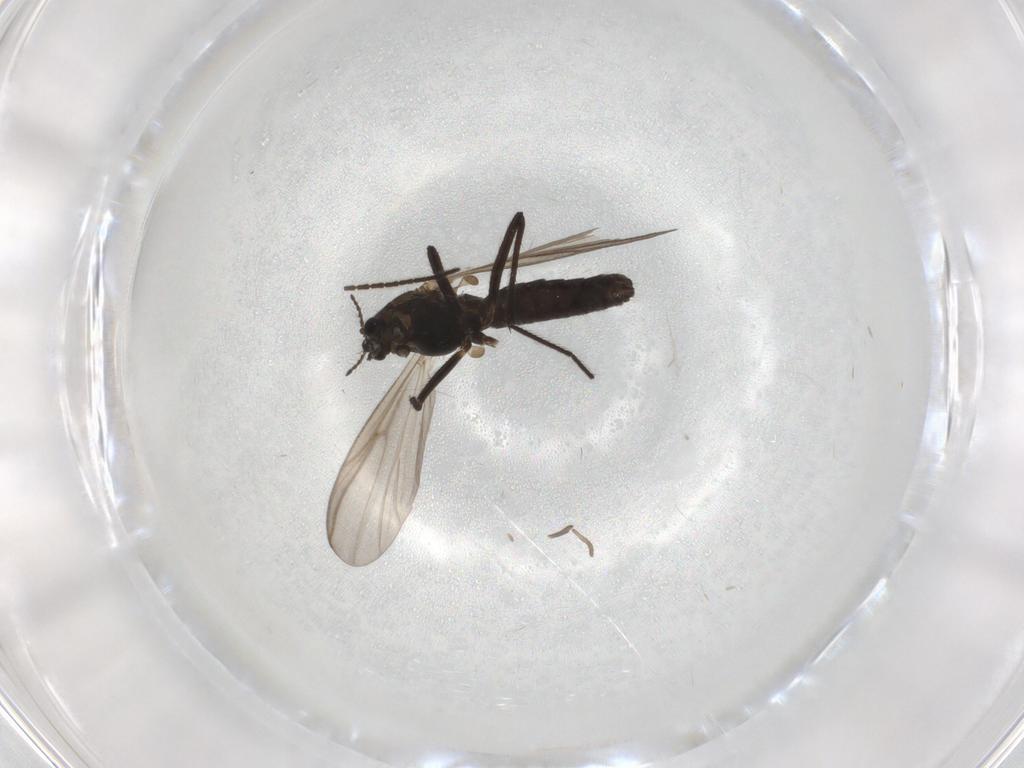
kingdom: Animalia
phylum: Arthropoda
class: Insecta
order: Diptera
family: Chironomidae
